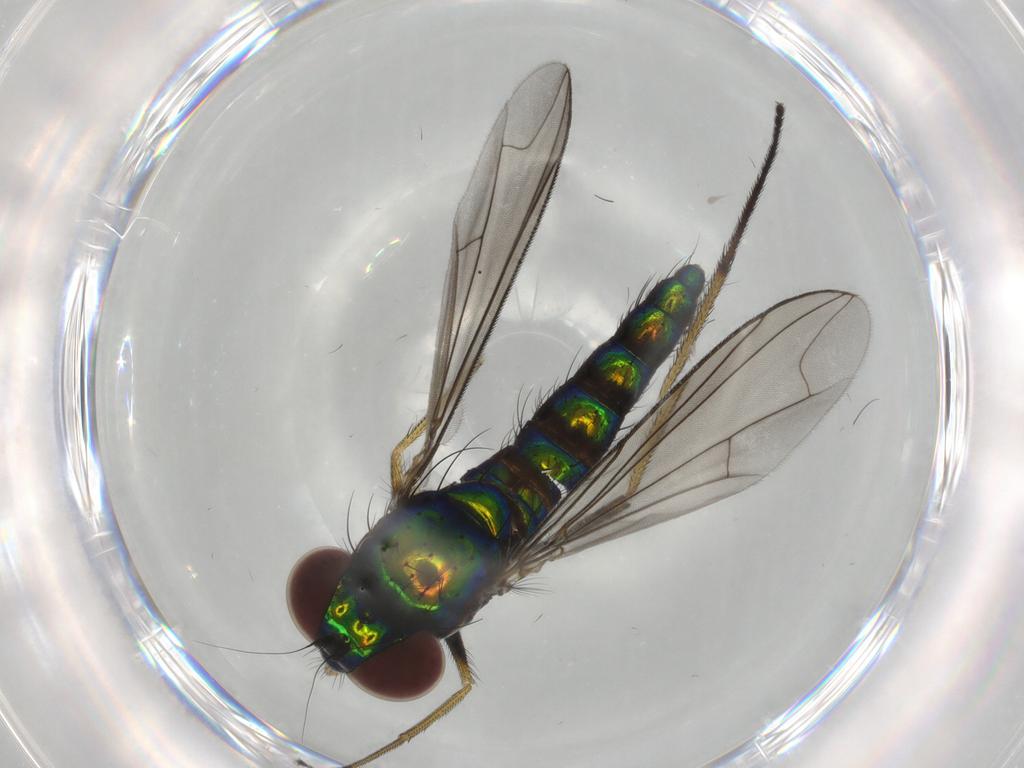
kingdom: Animalia
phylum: Arthropoda
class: Insecta
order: Diptera
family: Dolichopodidae
